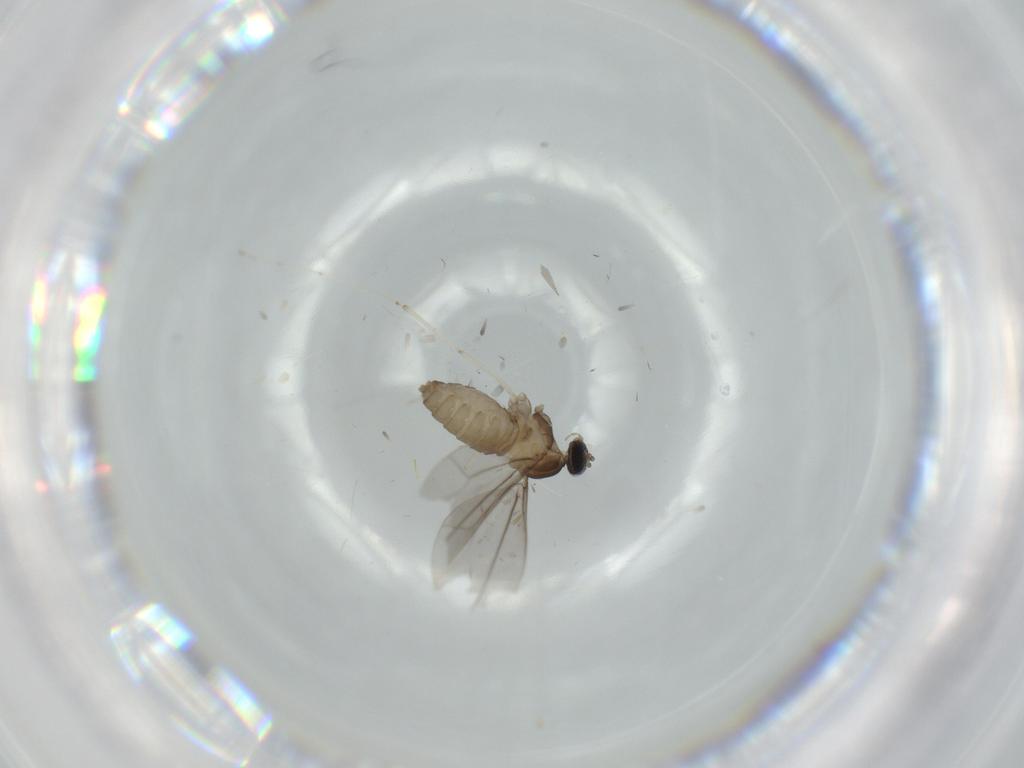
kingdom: Animalia
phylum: Arthropoda
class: Insecta
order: Diptera
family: Cecidomyiidae
